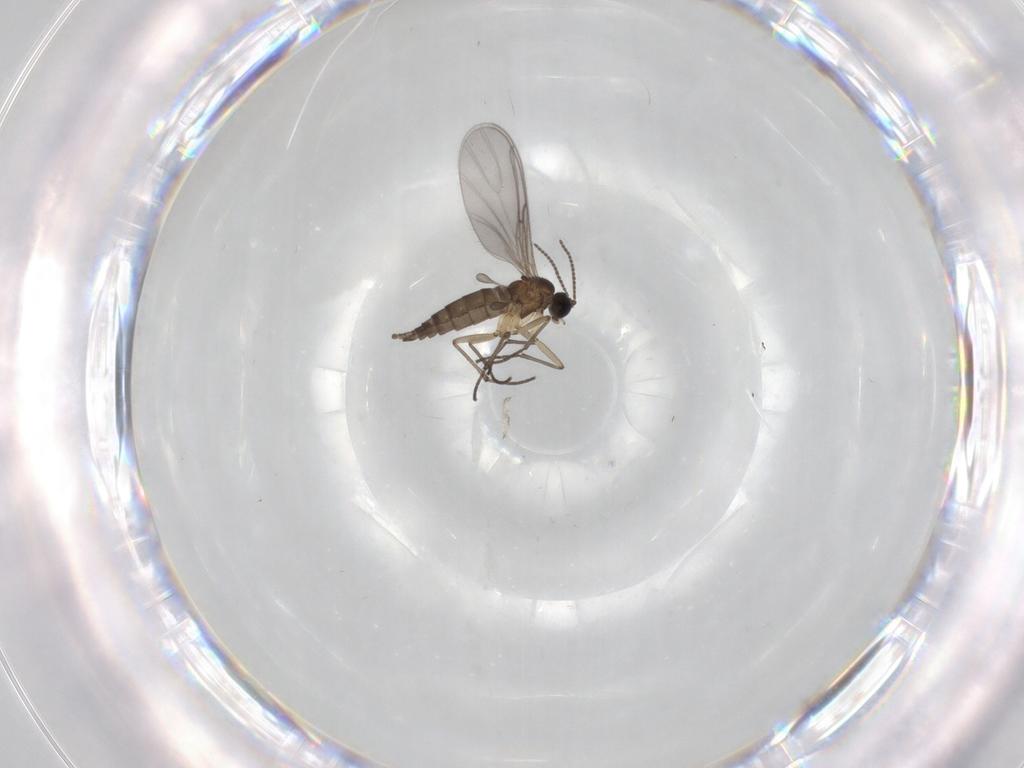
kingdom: Animalia
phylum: Arthropoda
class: Insecta
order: Diptera
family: Sciaridae
